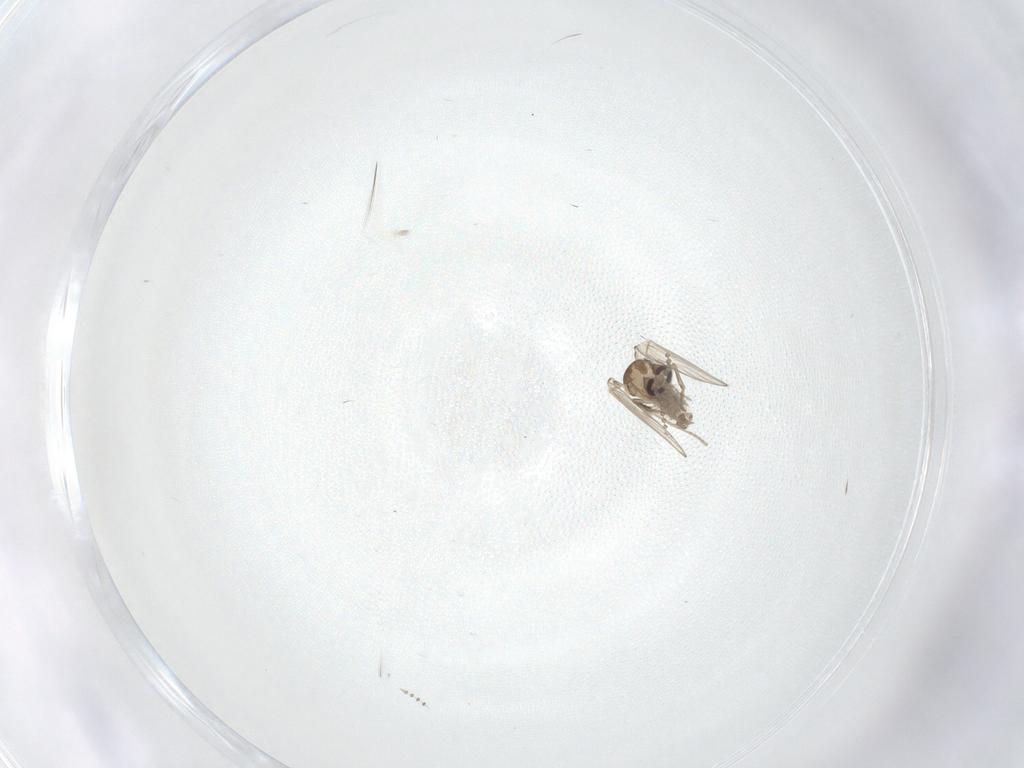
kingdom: Animalia
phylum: Arthropoda
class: Insecta
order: Diptera
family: Psychodidae
